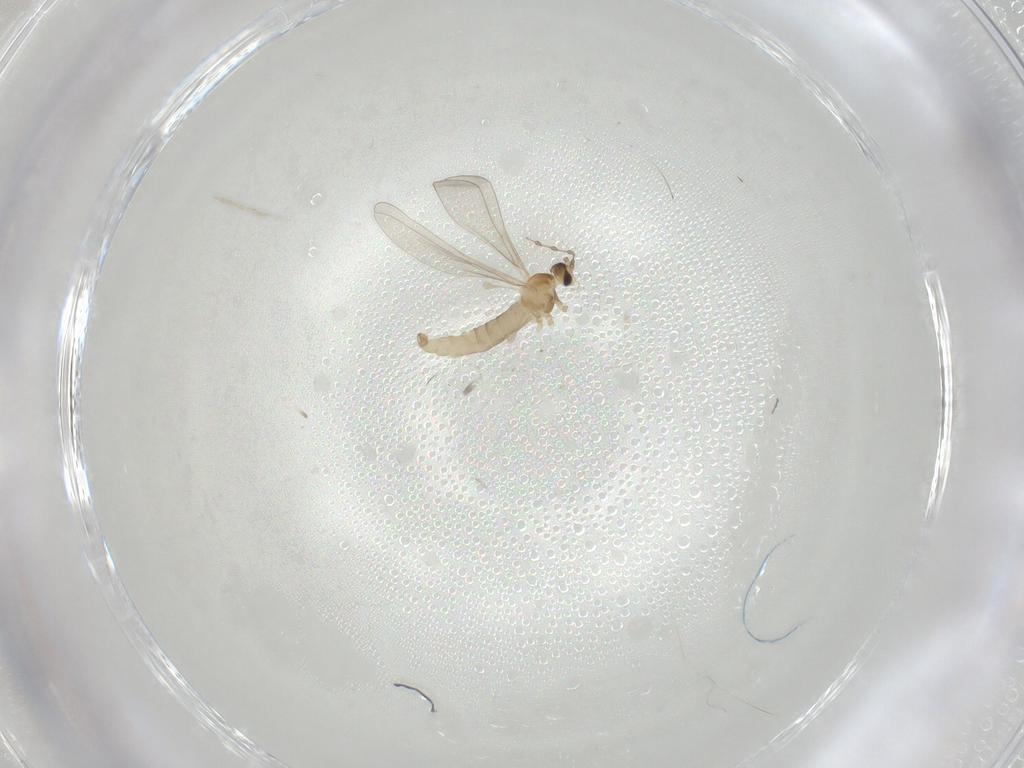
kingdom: Animalia
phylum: Arthropoda
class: Insecta
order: Diptera
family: Cecidomyiidae
